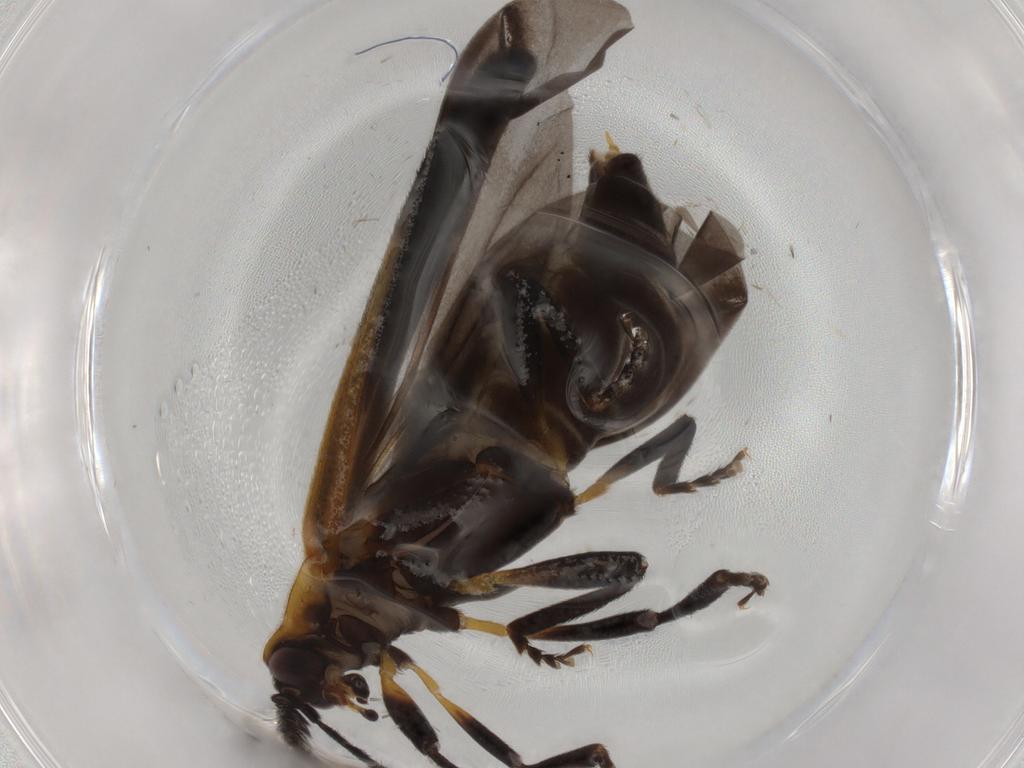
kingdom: Animalia
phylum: Arthropoda
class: Insecta
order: Coleoptera
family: Lycidae
